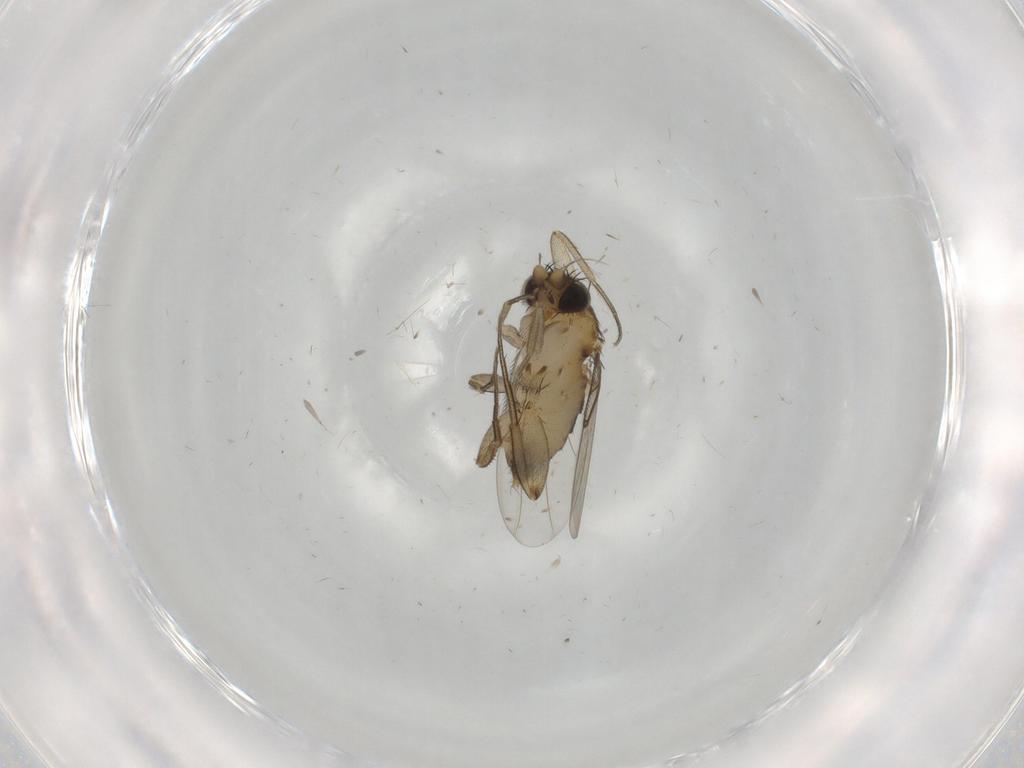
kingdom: Animalia
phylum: Arthropoda
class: Insecta
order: Diptera
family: Phoridae
